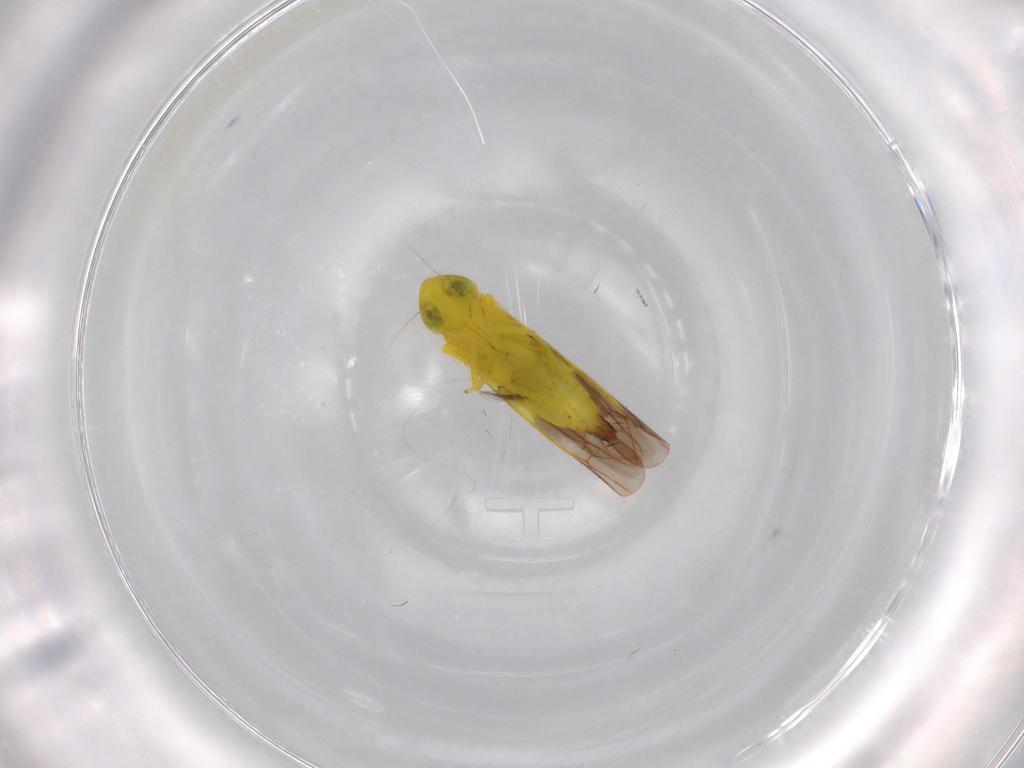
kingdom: Animalia
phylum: Arthropoda
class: Insecta
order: Hemiptera
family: Cicadellidae
